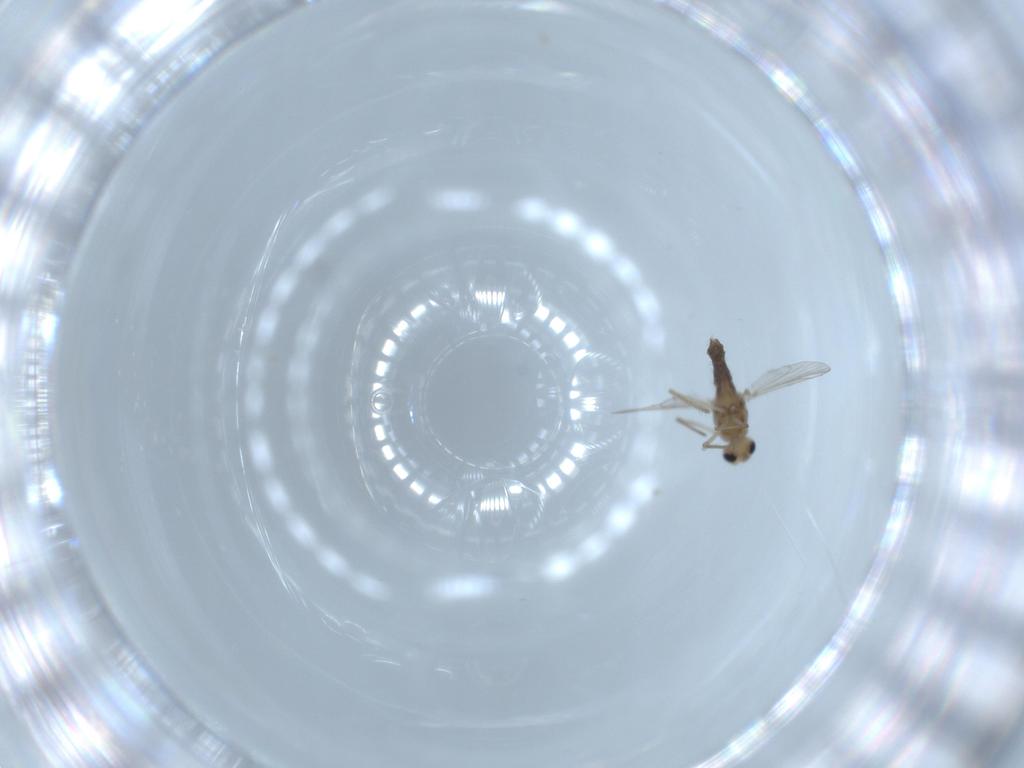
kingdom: Animalia
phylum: Arthropoda
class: Insecta
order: Diptera
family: Chironomidae
